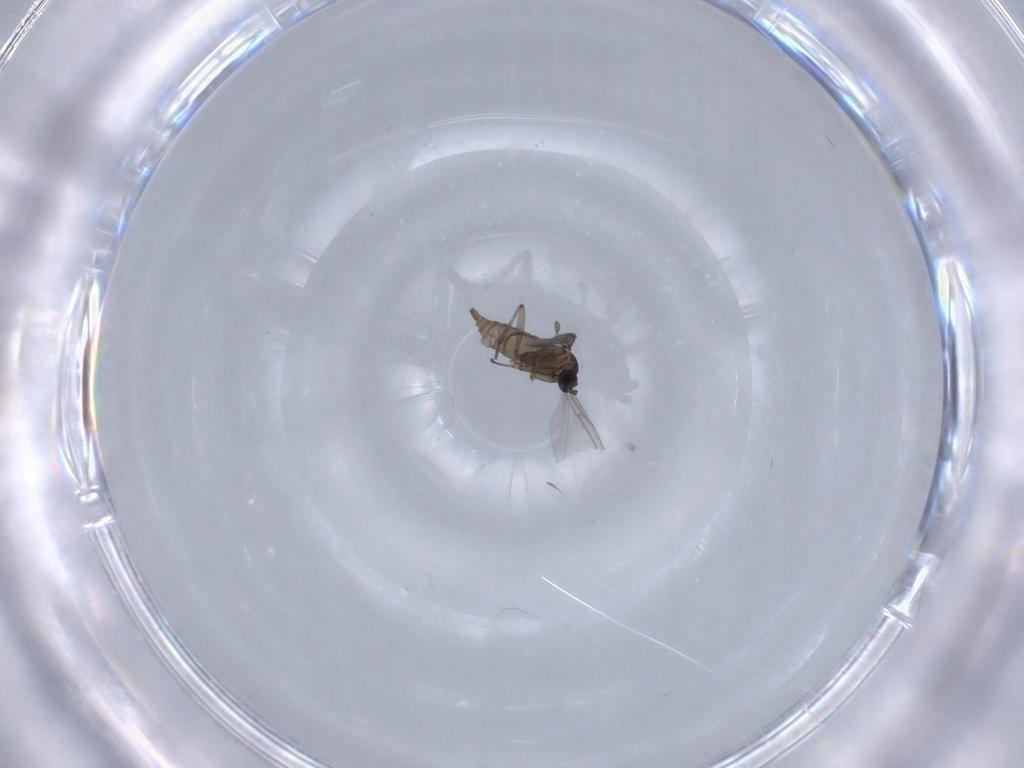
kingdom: Animalia
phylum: Arthropoda
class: Insecta
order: Diptera
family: Sciaridae
